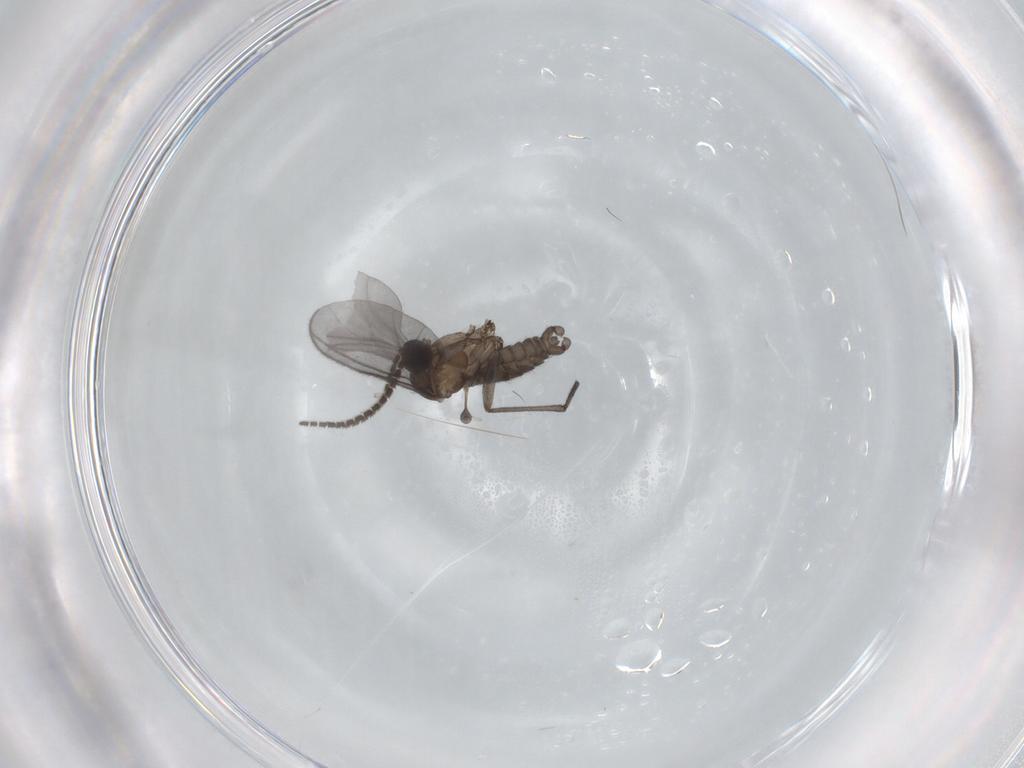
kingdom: Animalia
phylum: Arthropoda
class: Insecta
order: Diptera
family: Sciaridae
